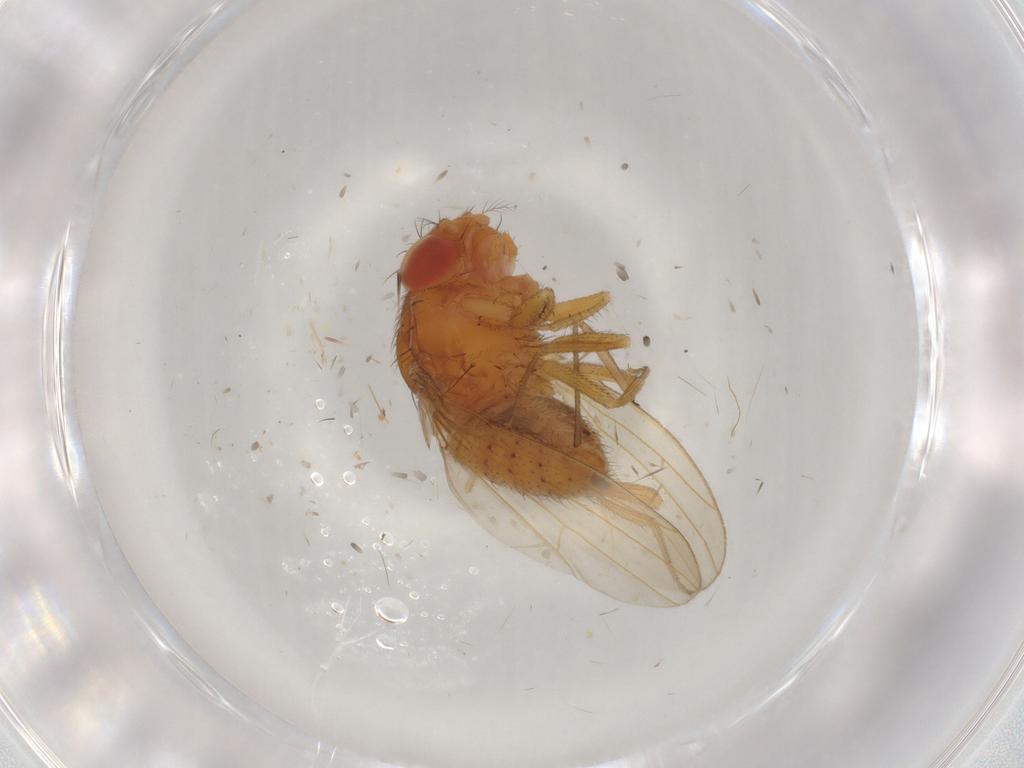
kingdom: Animalia
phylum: Arthropoda
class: Insecta
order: Diptera
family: Drosophilidae
